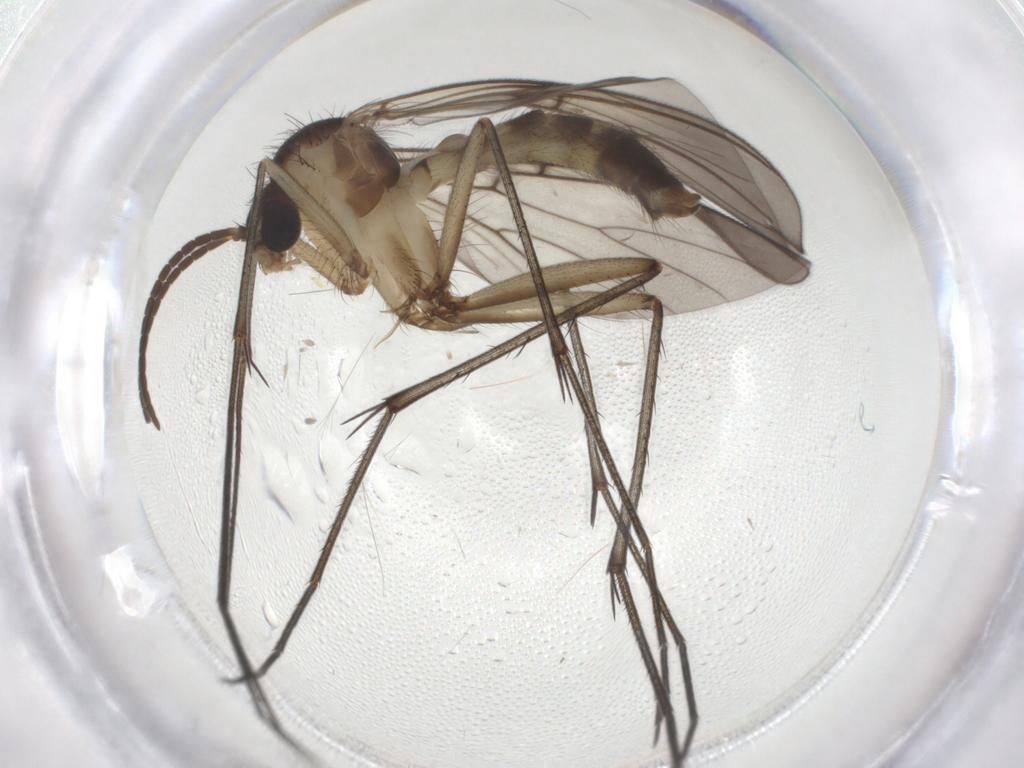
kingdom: Animalia
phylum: Arthropoda
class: Insecta
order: Diptera
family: Mycetophilidae
